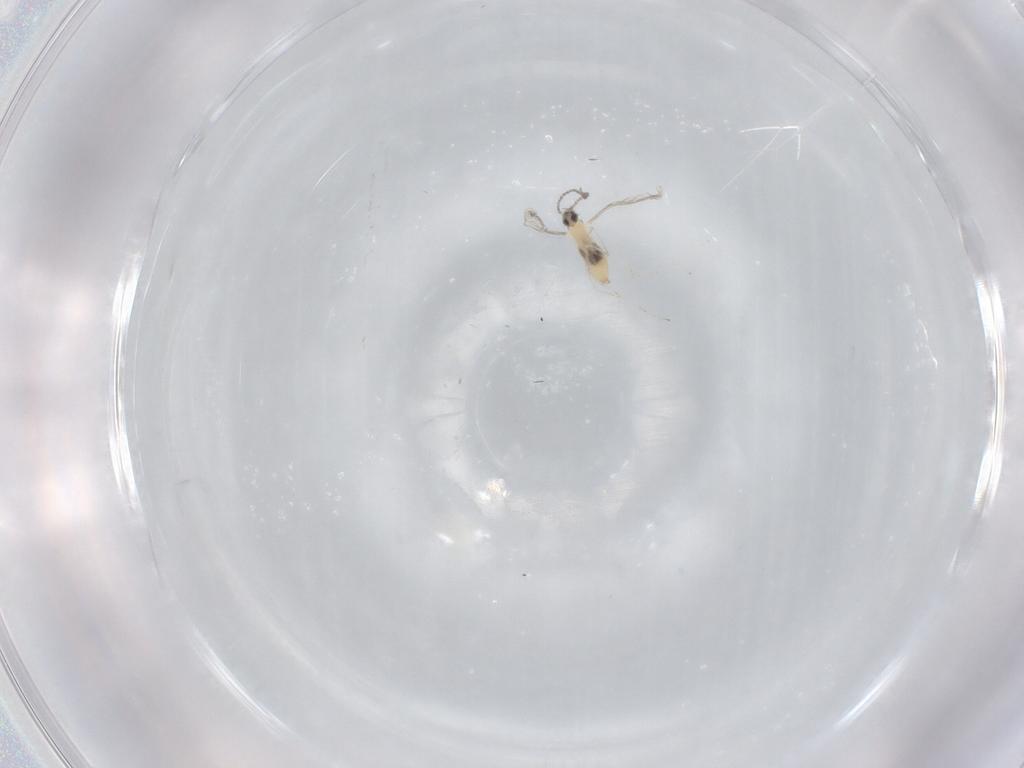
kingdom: Animalia
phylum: Arthropoda
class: Insecta
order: Diptera
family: Cecidomyiidae
